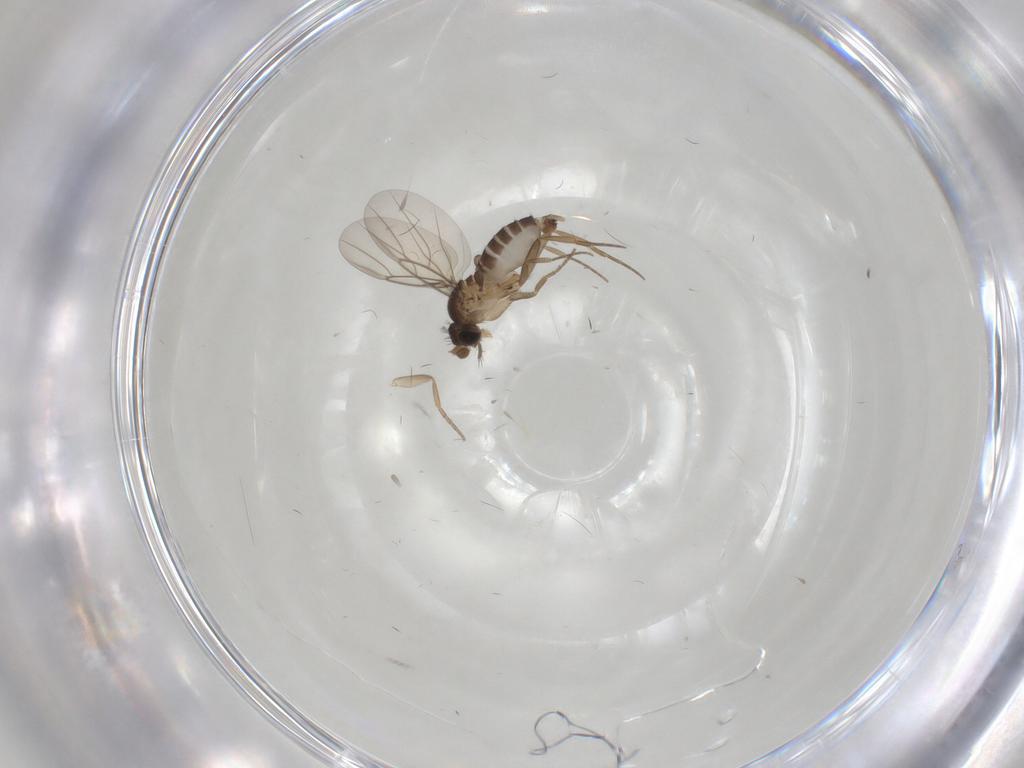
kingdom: Animalia
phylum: Arthropoda
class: Insecta
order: Diptera
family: Phoridae
